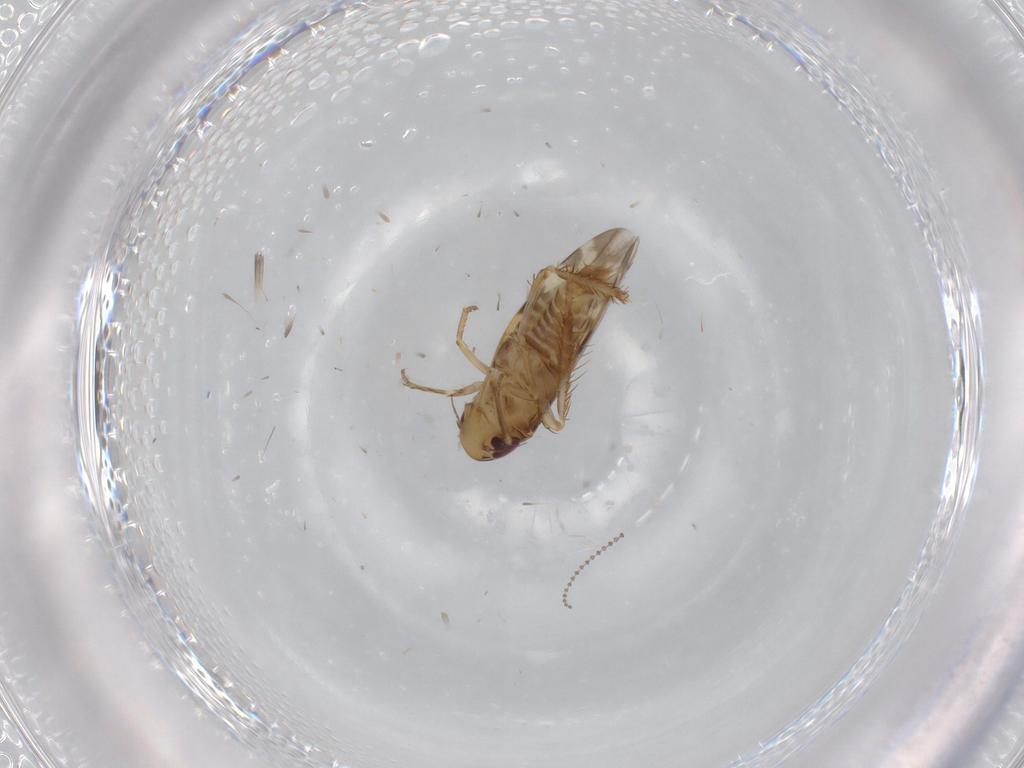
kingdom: Animalia
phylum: Arthropoda
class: Insecta
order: Hemiptera
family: Cicadellidae
